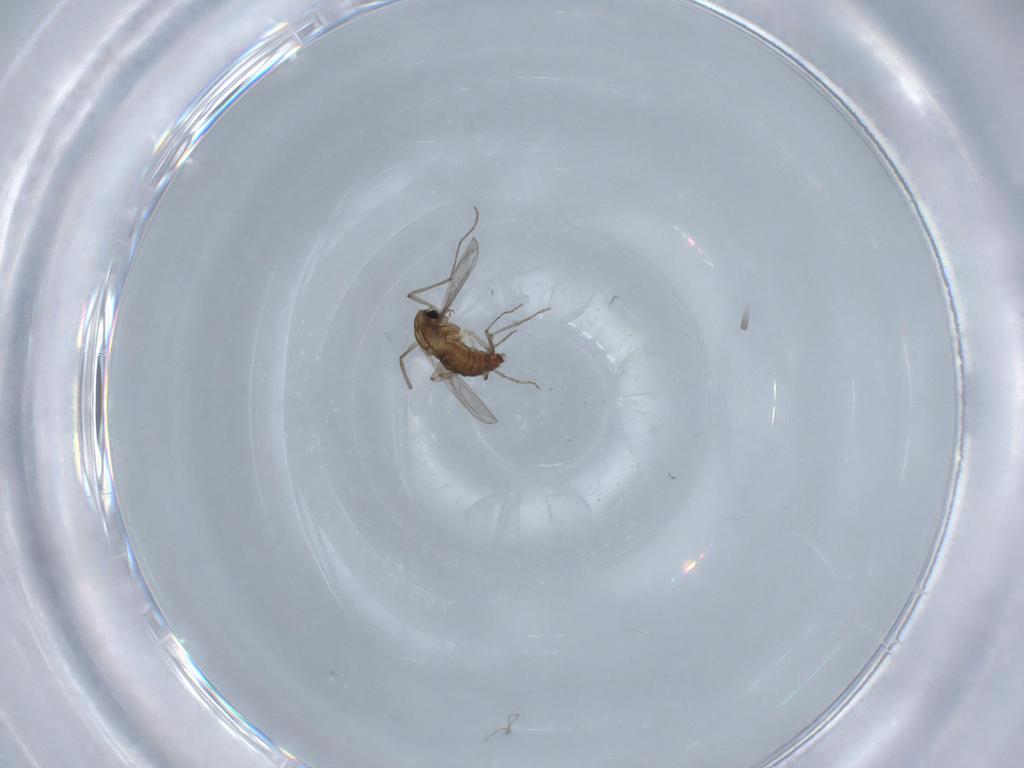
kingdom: Animalia
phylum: Arthropoda
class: Insecta
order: Diptera
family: Chironomidae
